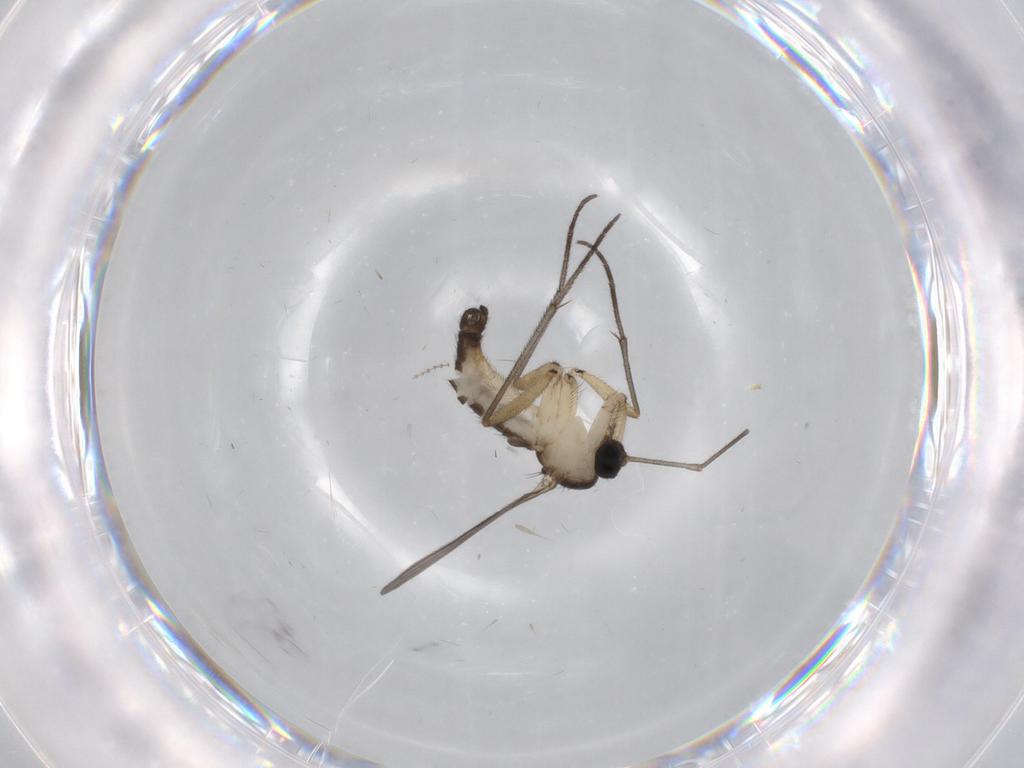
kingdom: Animalia
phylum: Arthropoda
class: Insecta
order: Diptera
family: Sciaridae
